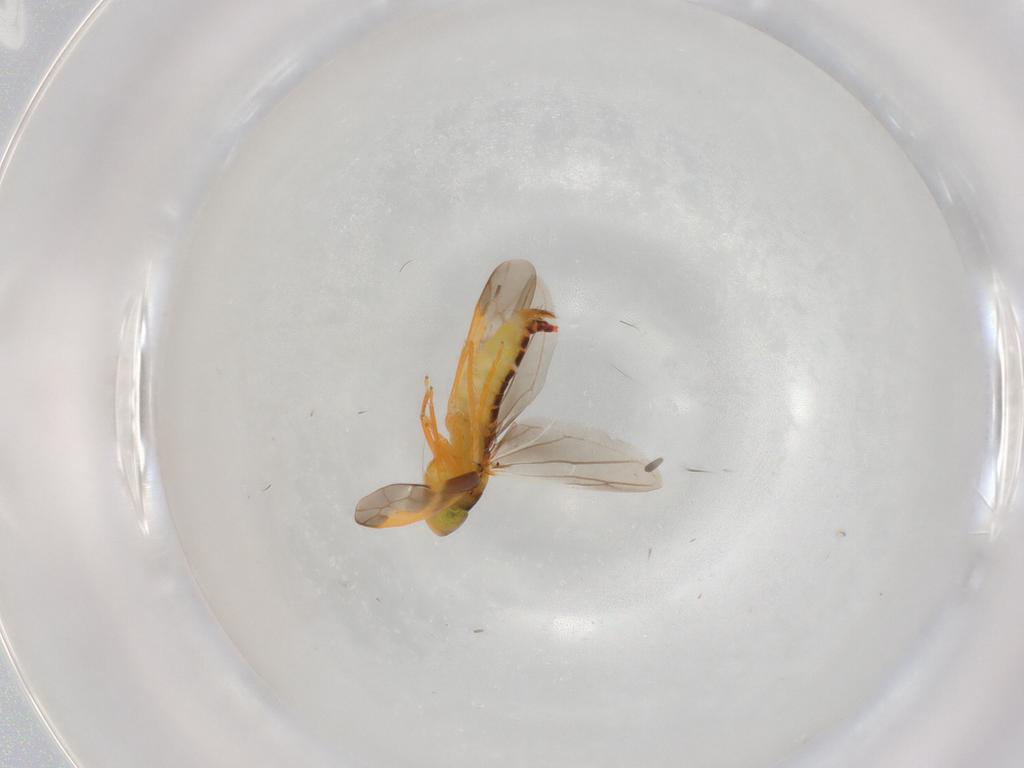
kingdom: Animalia
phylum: Arthropoda
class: Insecta
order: Hemiptera
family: Cicadellidae
